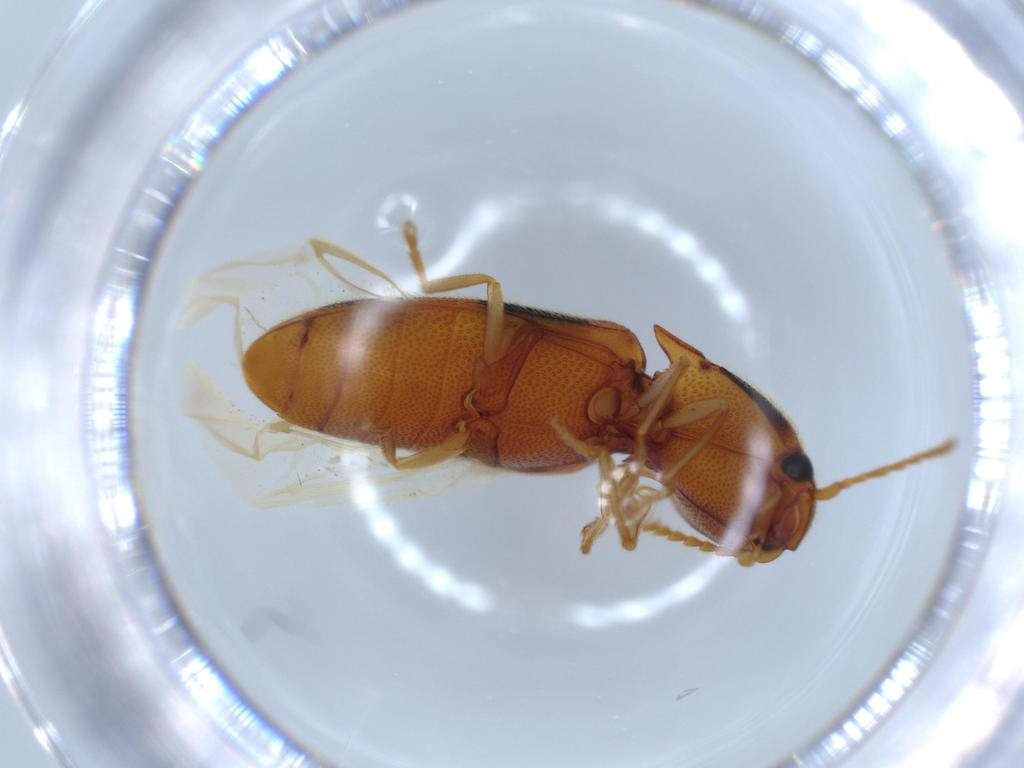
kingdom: Animalia
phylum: Arthropoda
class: Insecta
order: Coleoptera
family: Elateridae
